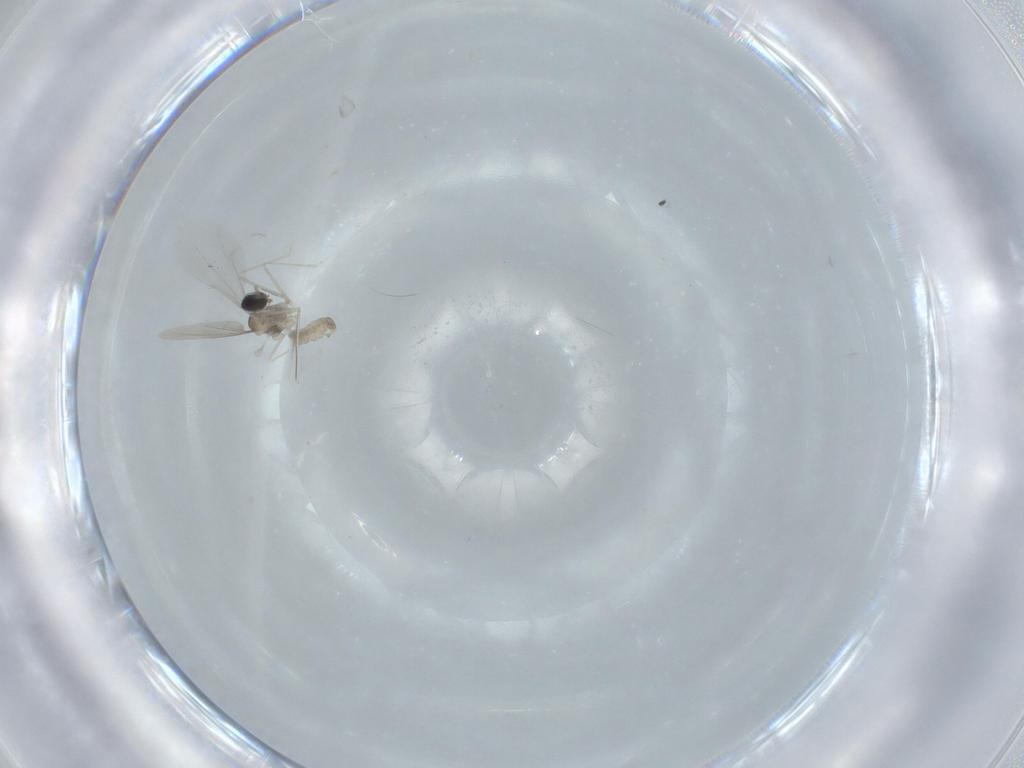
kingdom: Animalia
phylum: Arthropoda
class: Insecta
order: Diptera
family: Cecidomyiidae
